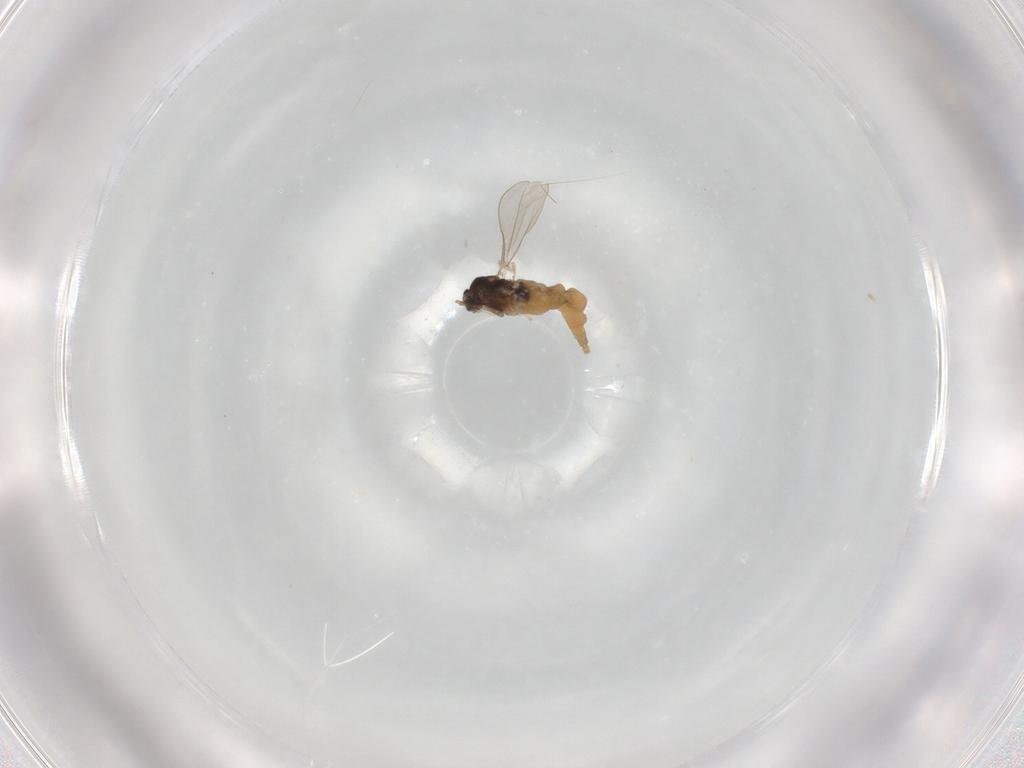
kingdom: Animalia
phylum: Arthropoda
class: Insecta
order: Diptera
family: Cecidomyiidae
